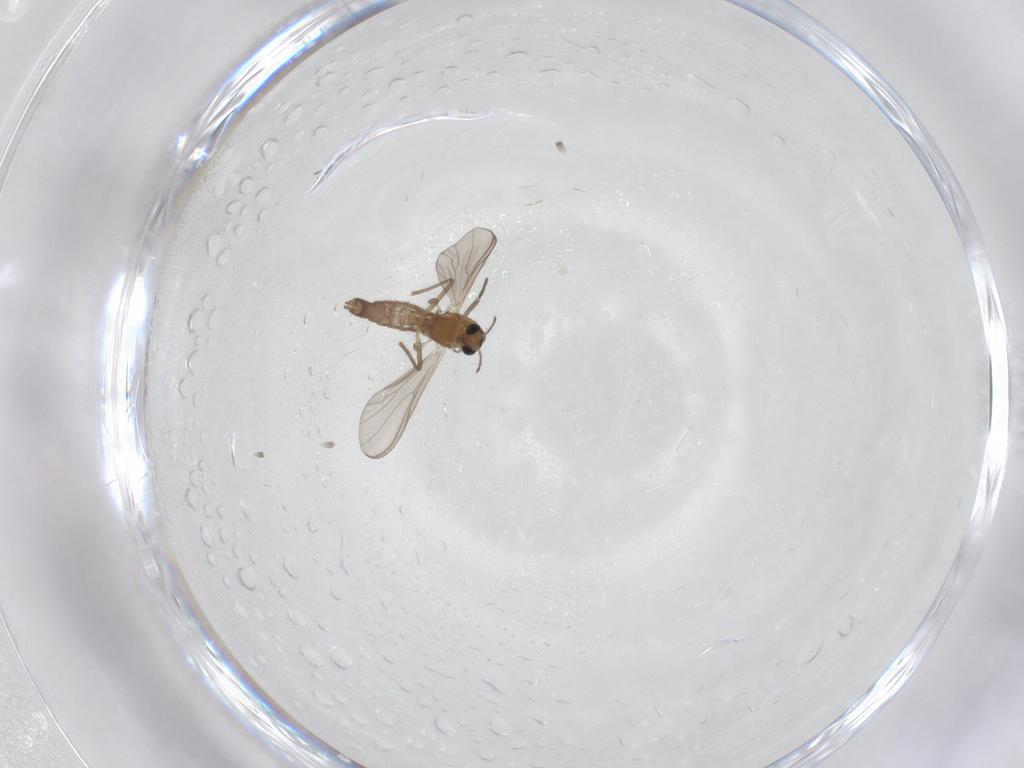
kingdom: Animalia
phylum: Arthropoda
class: Insecta
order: Diptera
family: Chironomidae
